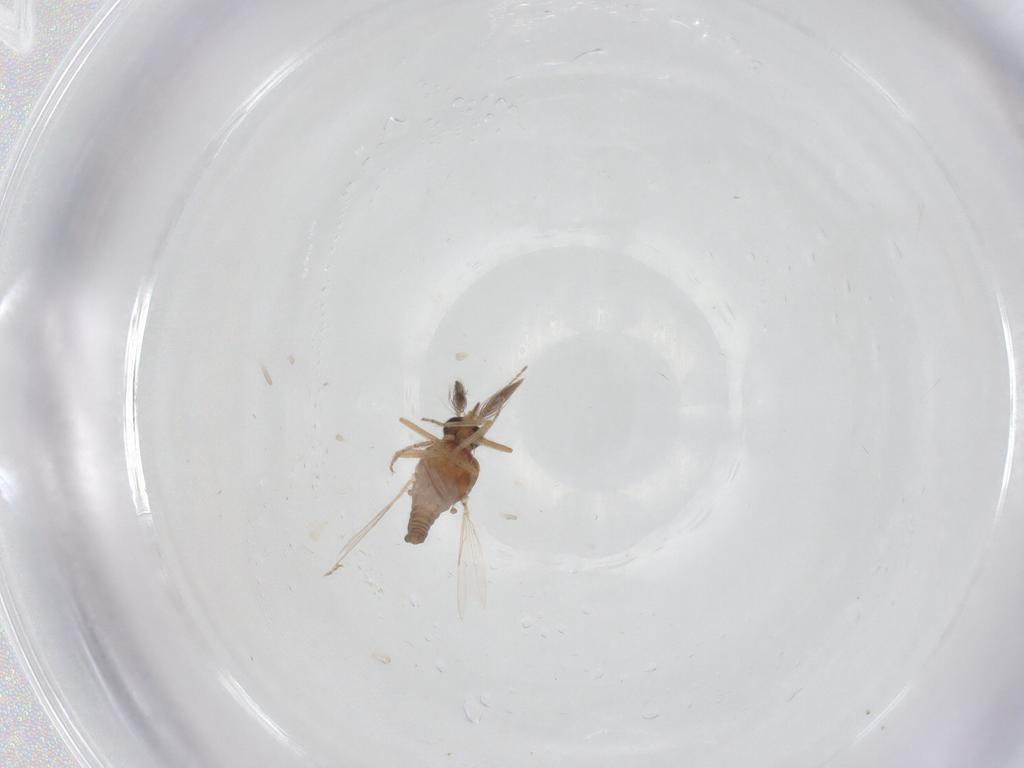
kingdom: Animalia
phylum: Arthropoda
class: Insecta
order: Diptera
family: Ceratopogonidae
